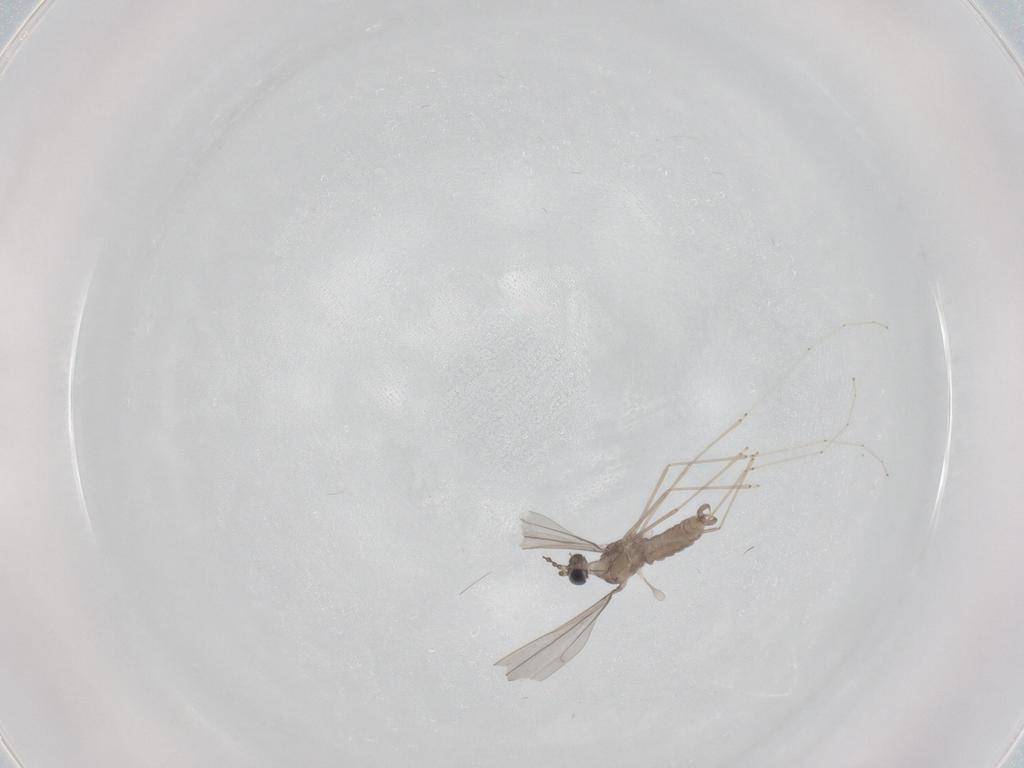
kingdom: Animalia
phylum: Arthropoda
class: Insecta
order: Diptera
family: Cecidomyiidae
